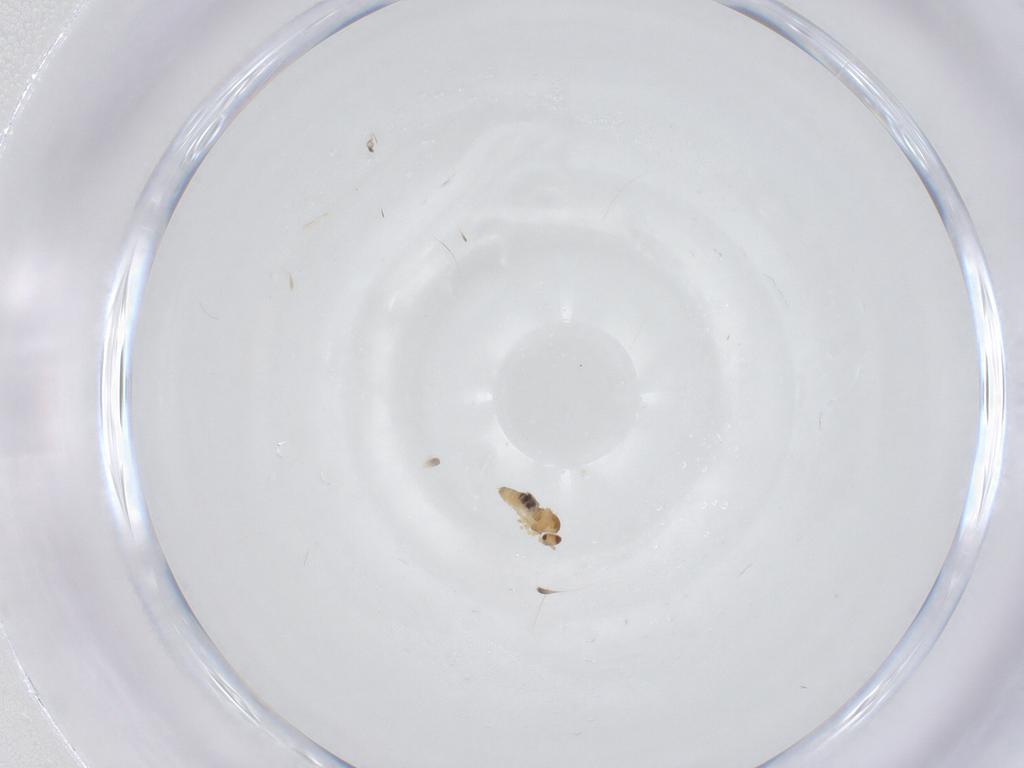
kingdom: Animalia
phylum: Arthropoda
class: Insecta
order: Diptera
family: Cecidomyiidae
